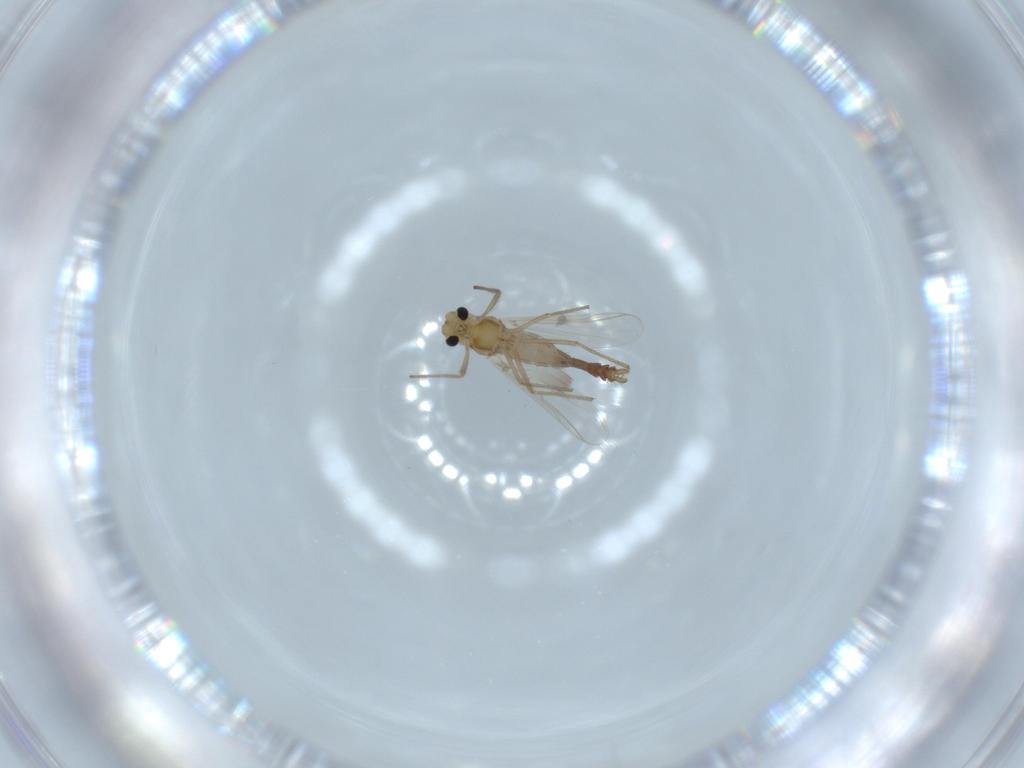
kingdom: Animalia
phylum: Arthropoda
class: Insecta
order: Diptera
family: Chironomidae
